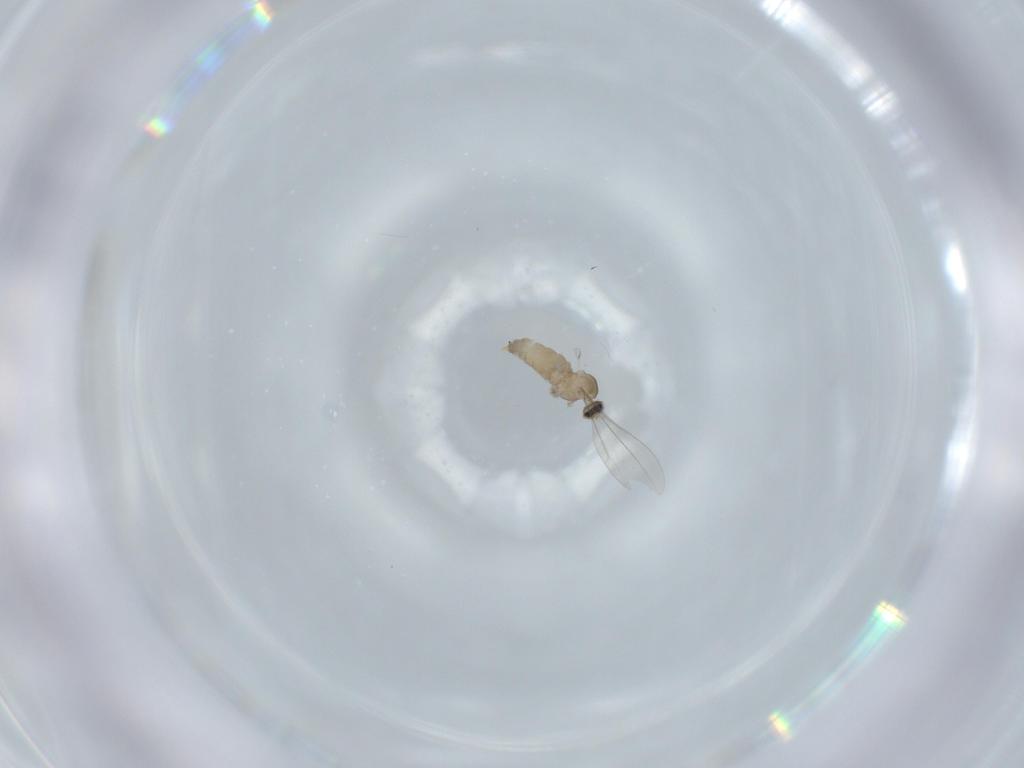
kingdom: Animalia
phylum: Arthropoda
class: Insecta
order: Diptera
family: Cecidomyiidae
